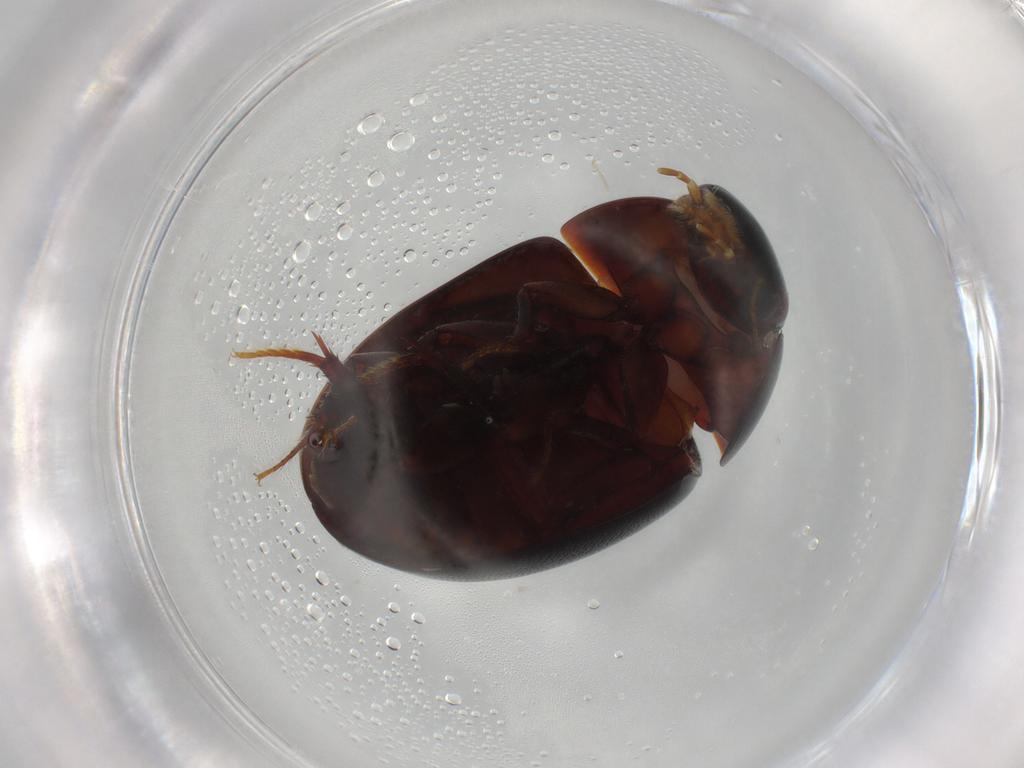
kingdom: Animalia
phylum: Arthropoda
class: Insecta
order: Coleoptera
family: Hydrophilidae
